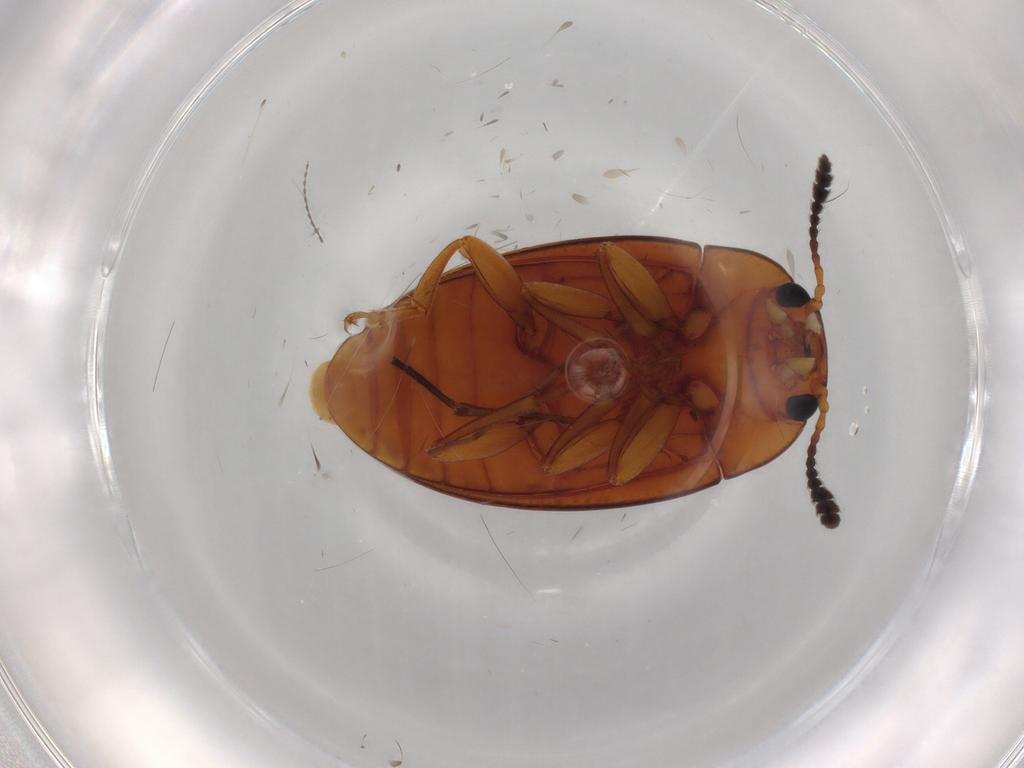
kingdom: Animalia
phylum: Arthropoda
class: Insecta
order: Coleoptera
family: Erotylidae
